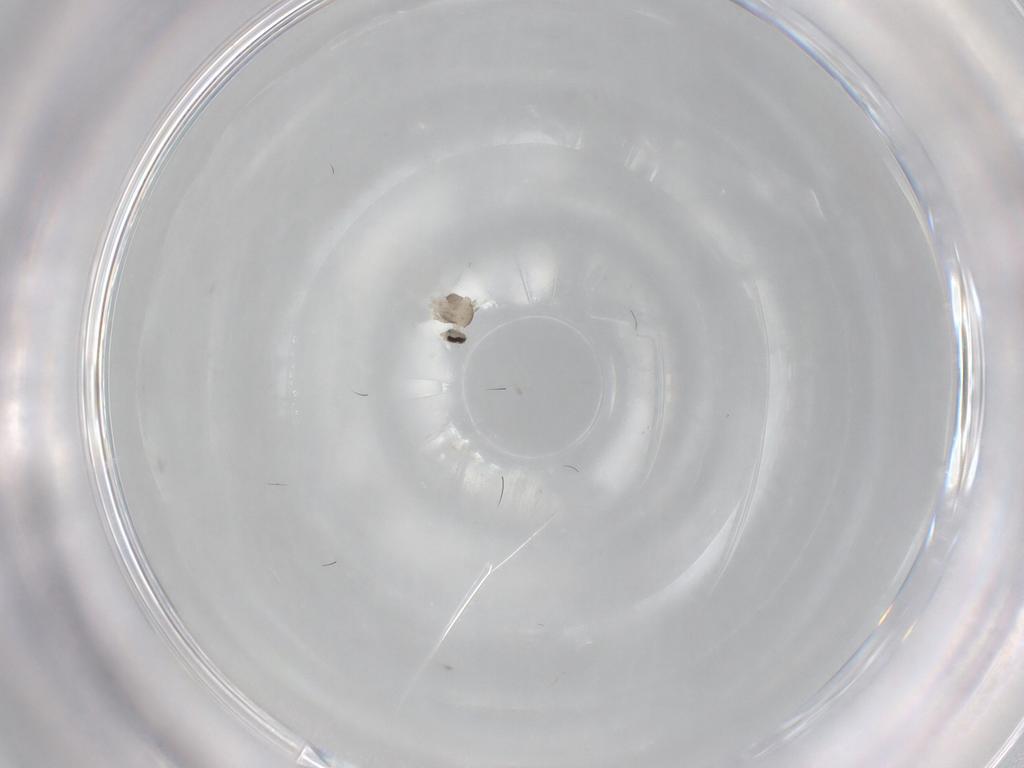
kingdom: Animalia
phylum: Arthropoda
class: Insecta
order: Diptera
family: Cecidomyiidae
